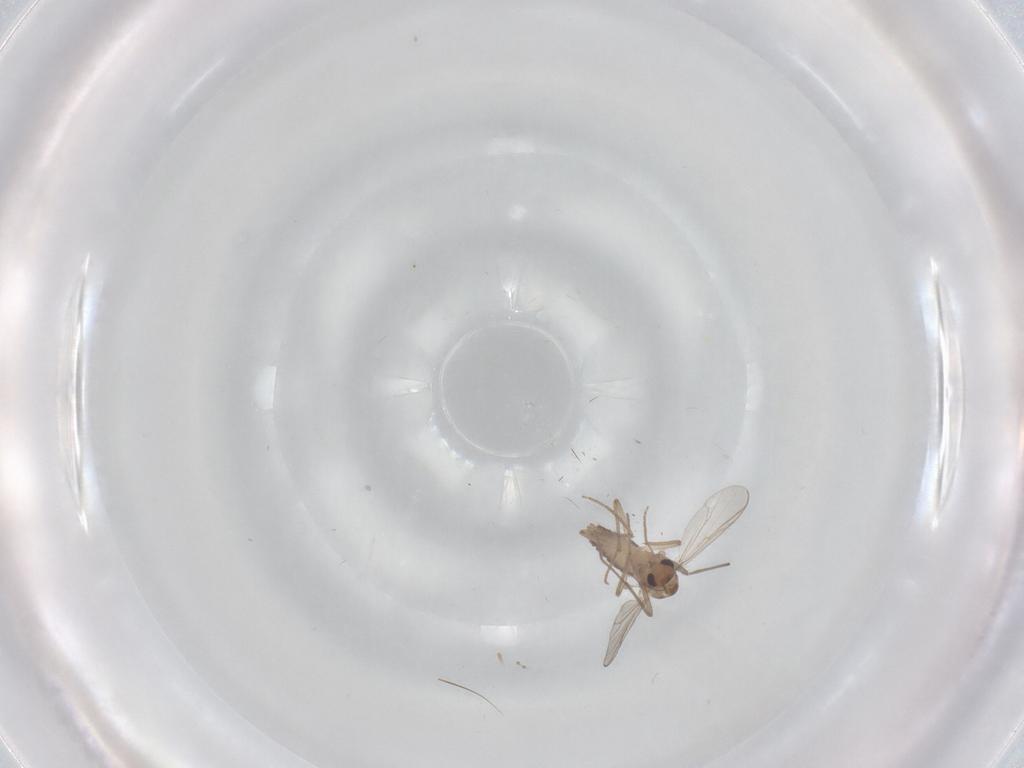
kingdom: Animalia
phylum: Arthropoda
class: Insecta
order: Diptera
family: Chironomidae
